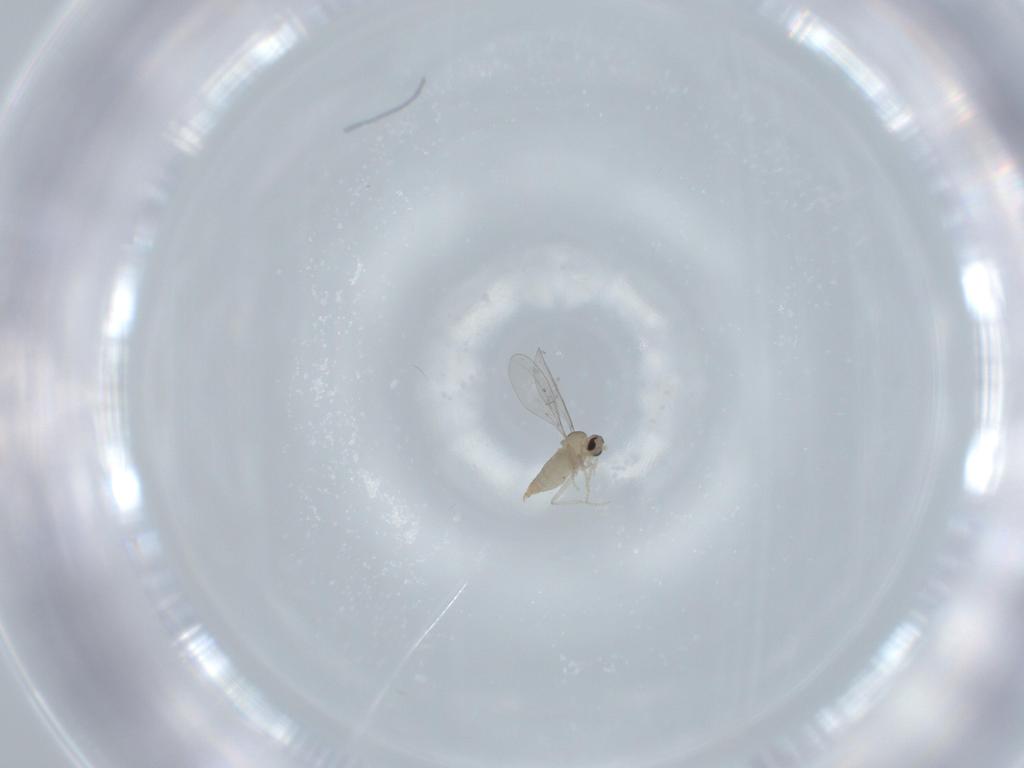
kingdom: Animalia
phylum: Arthropoda
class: Insecta
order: Diptera
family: Cecidomyiidae
